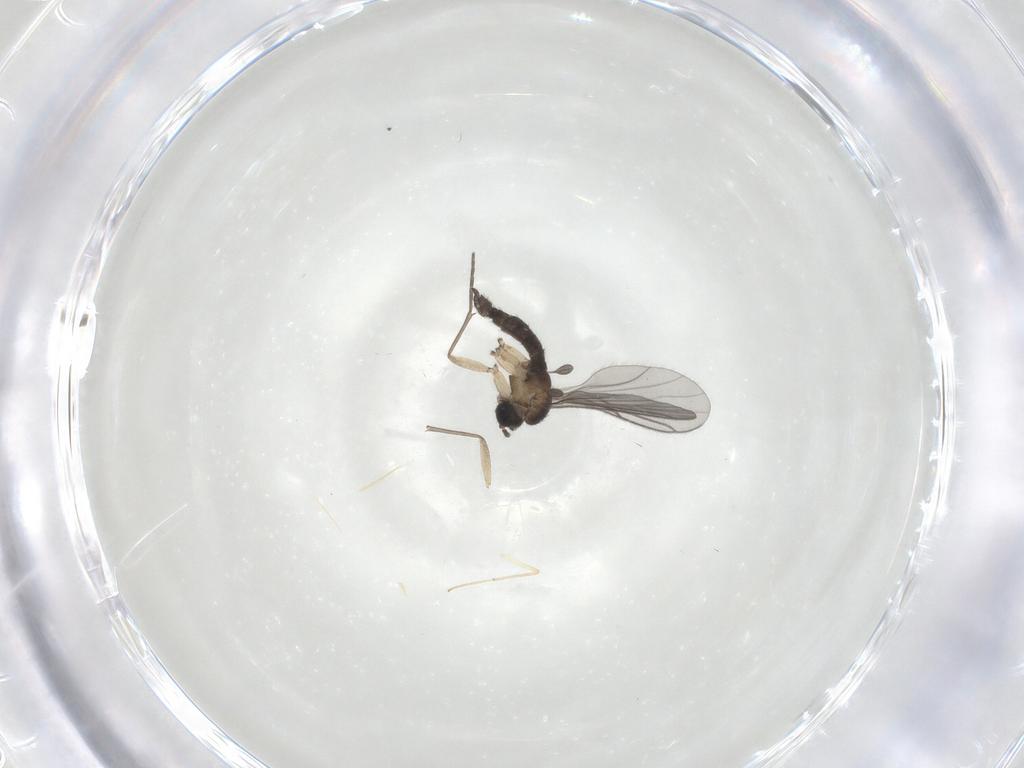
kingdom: Animalia
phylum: Arthropoda
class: Insecta
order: Diptera
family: Sciaridae
